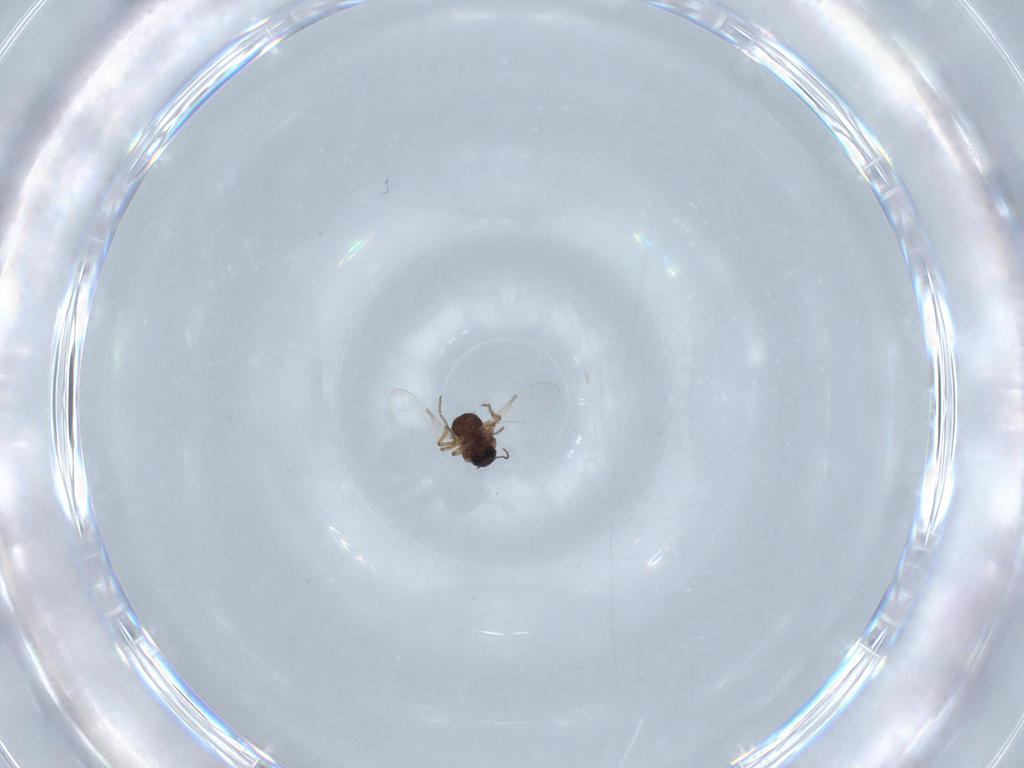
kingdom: Animalia
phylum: Arthropoda
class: Insecta
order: Diptera
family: Ceratopogonidae
